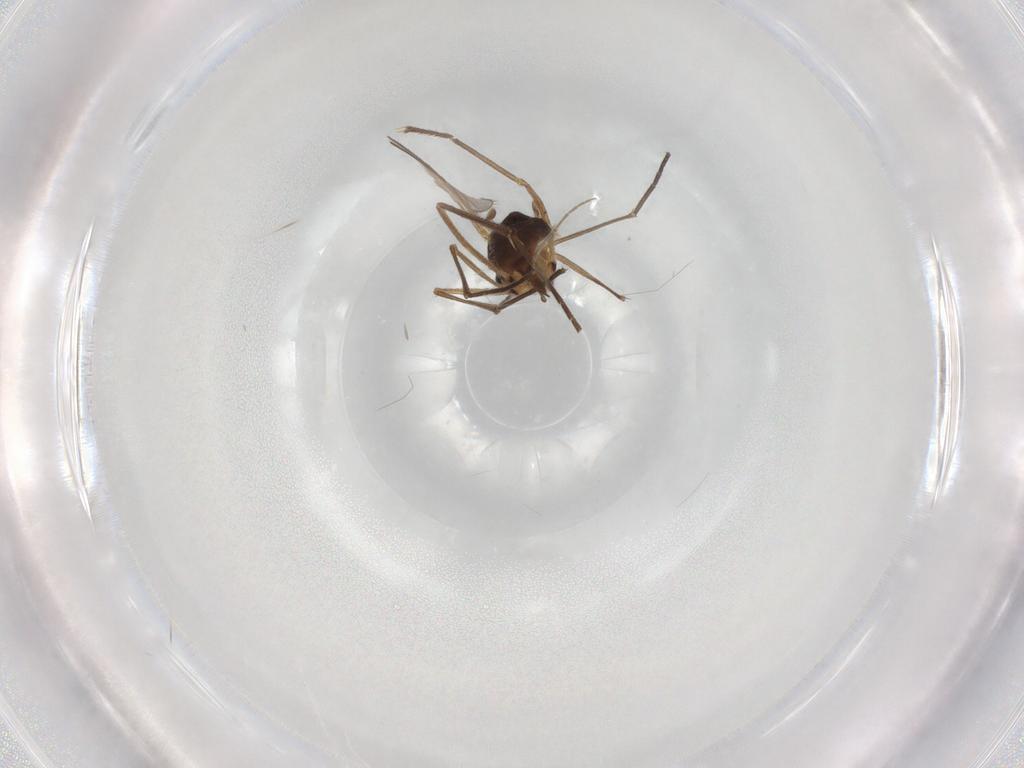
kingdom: Animalia
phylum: Arthropoda
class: Insecta
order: Diptera
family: Chironomidae
